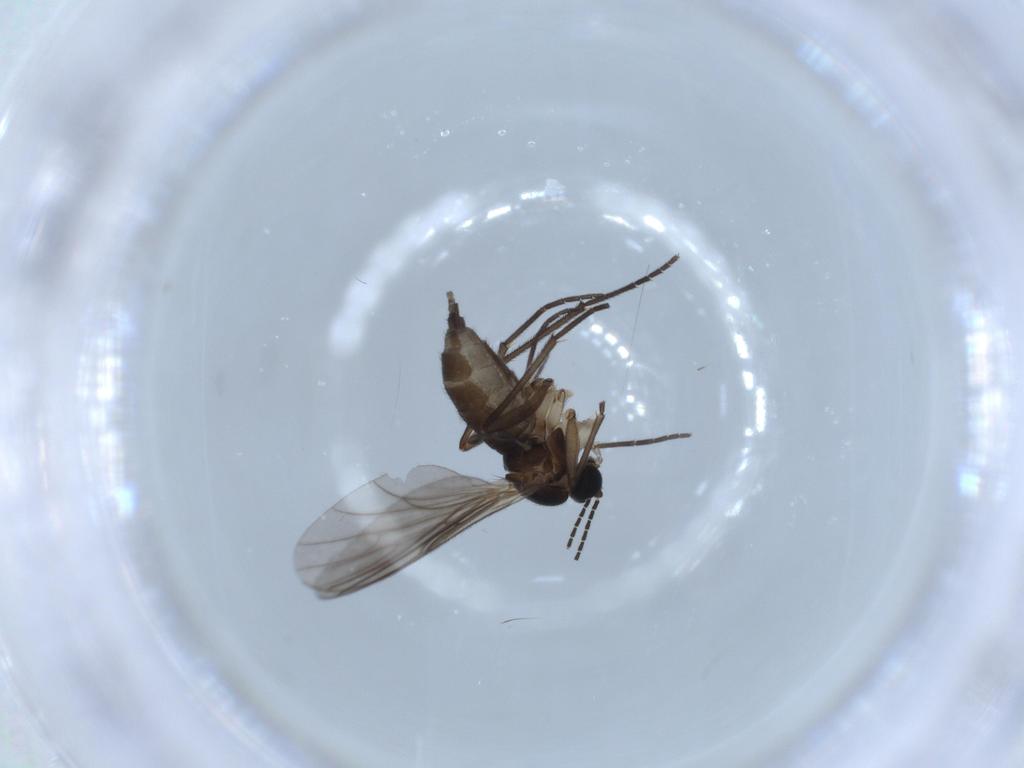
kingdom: Animalia
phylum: Arthropoda
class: Insecta
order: Diptera
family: Sciaridae
